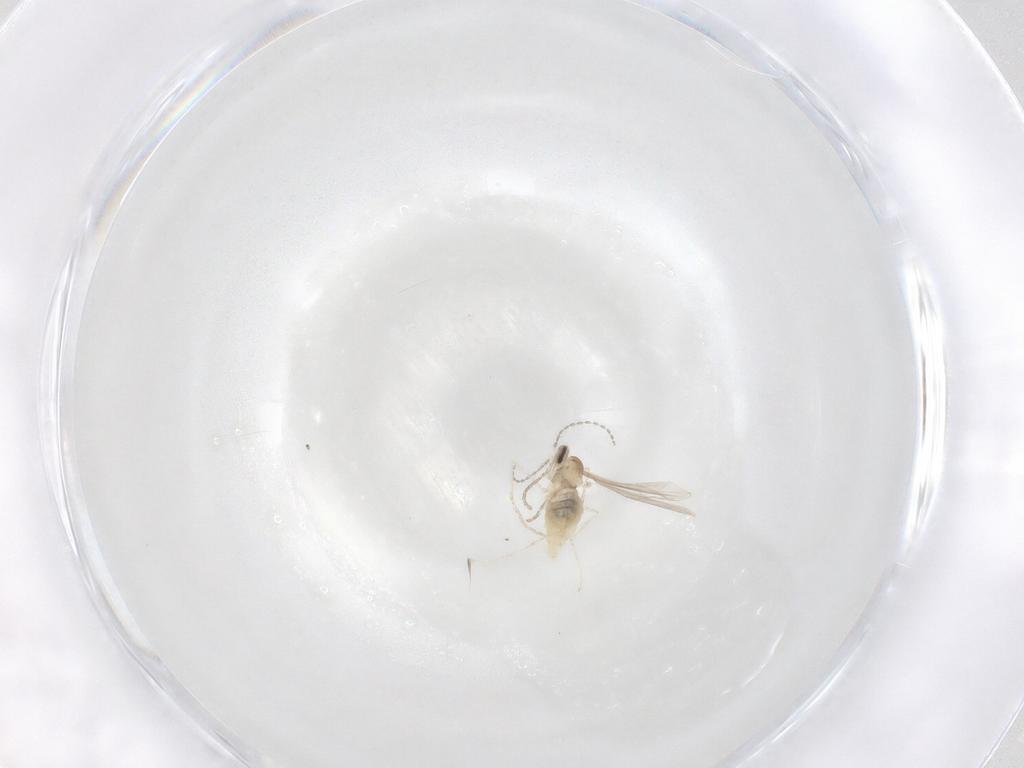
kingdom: Animalia
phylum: Arthropoda
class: Insecta
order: Diptera
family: Cecidomyiidae
